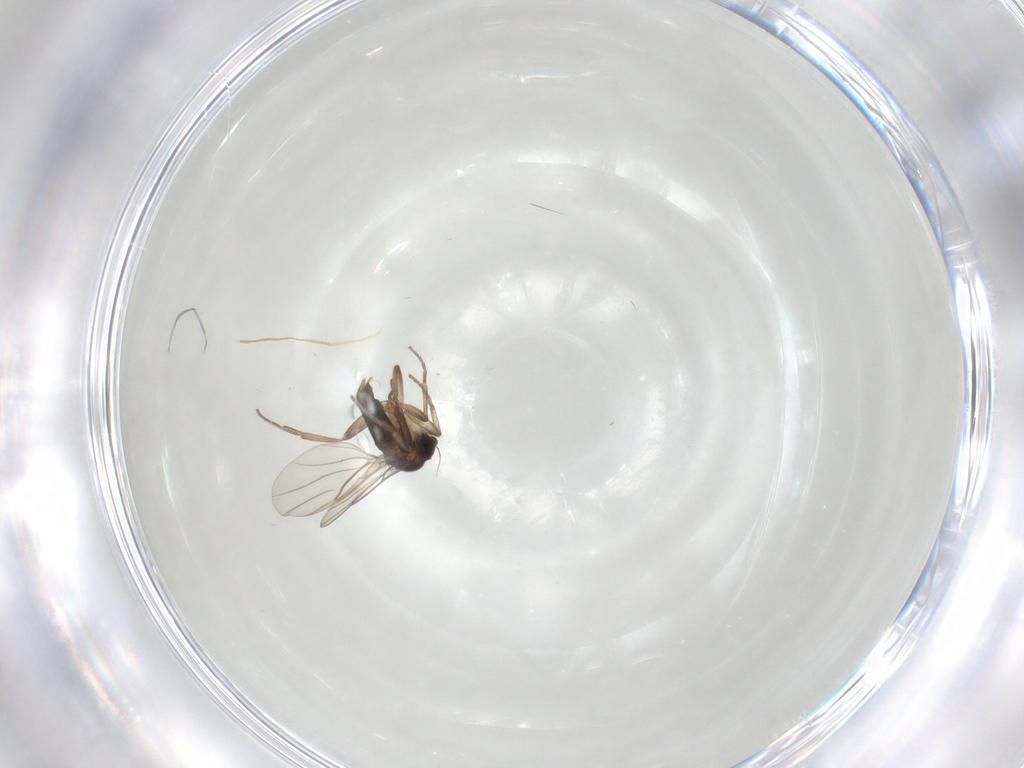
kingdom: Animalia
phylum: Arthropoda
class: Insecta
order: Diptera
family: Phoridae
